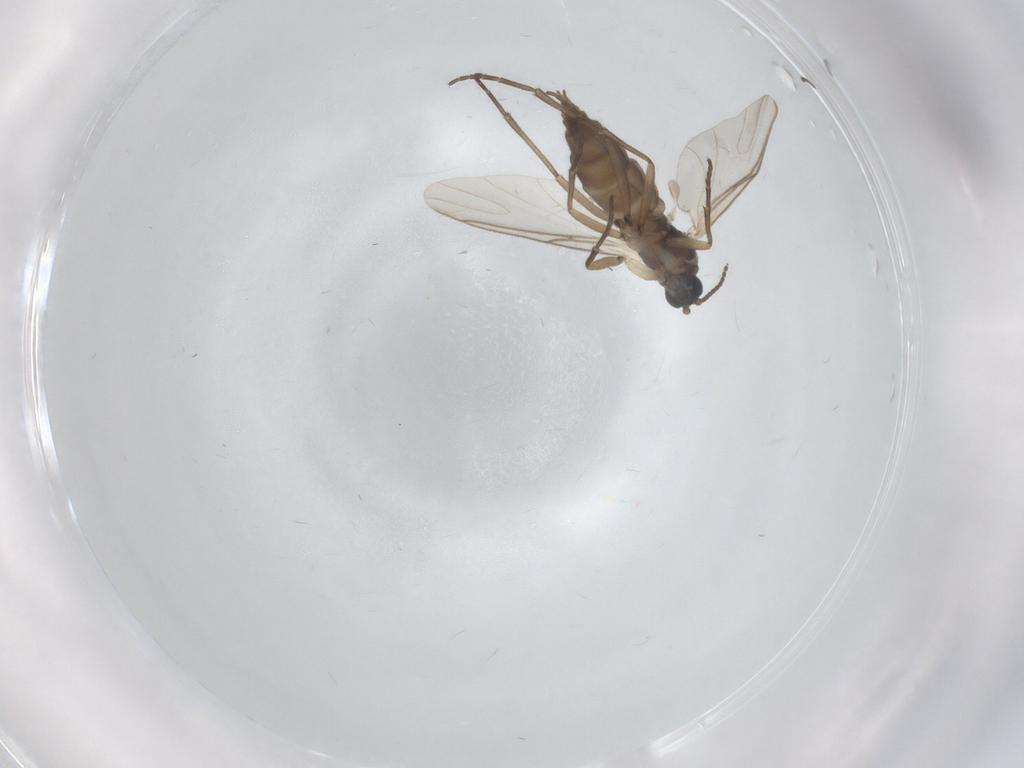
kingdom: Animalia
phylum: Arthropoda
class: Insecta
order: Diptera
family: Sciaridae
